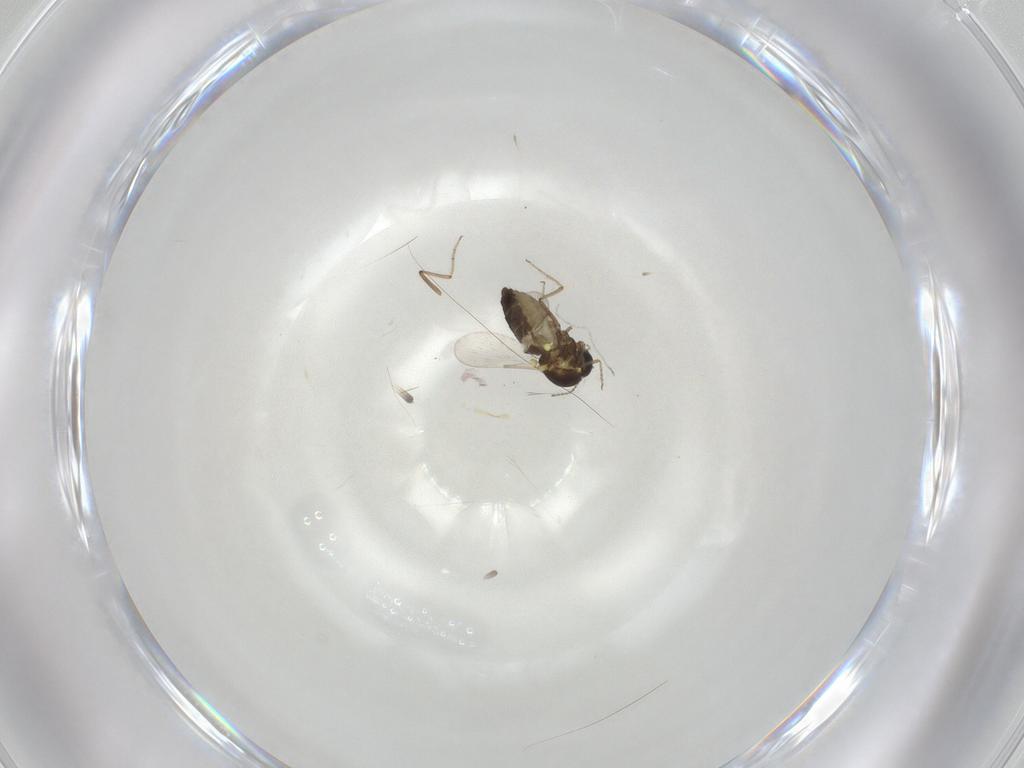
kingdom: Animalia
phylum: Arthropoda
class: Insecta
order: Diptera
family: Ceratopogonidae
